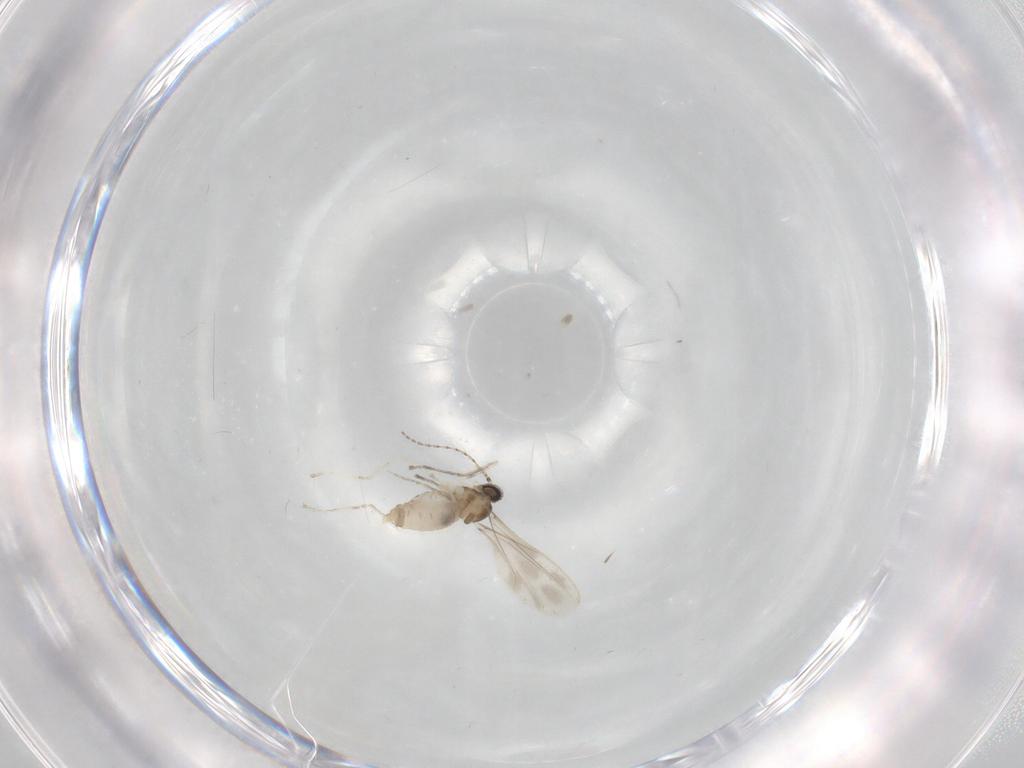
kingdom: Animalia
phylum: Arthropoda
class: Insecta
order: Diptera
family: Cecidomyiidae
